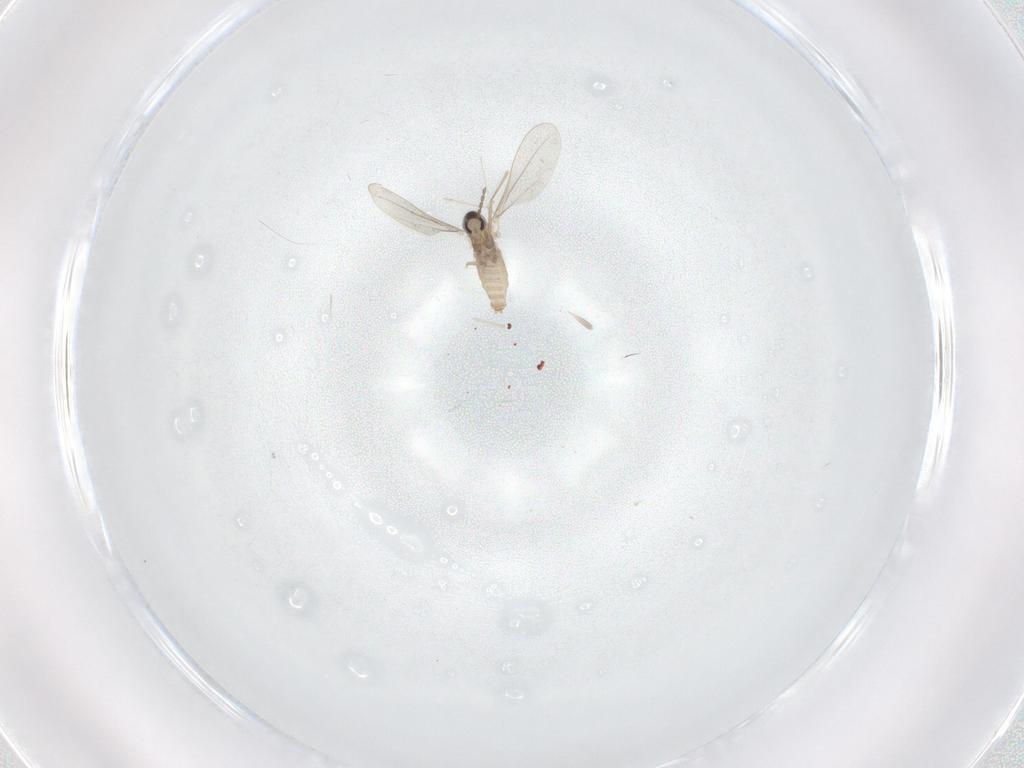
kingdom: Animalia
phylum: Arthropoda
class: Insecta
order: Diptera
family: Cecidomyiidae
